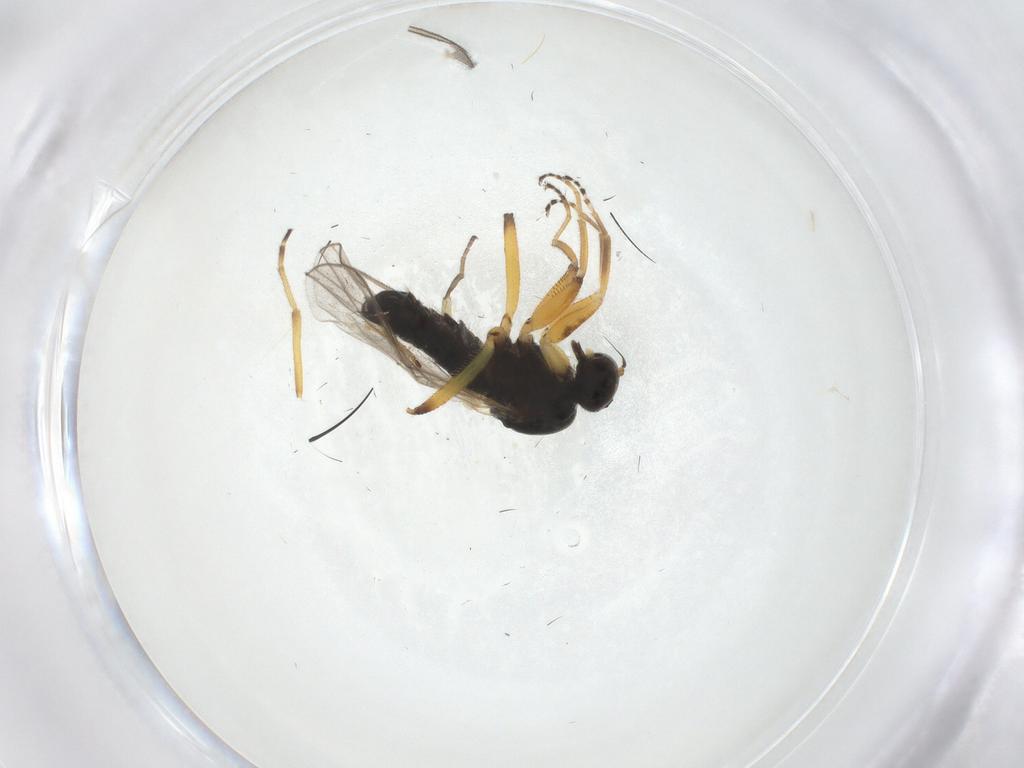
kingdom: Animalia
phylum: Arthropoda
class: Insecta
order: Diptera
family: Hybotidae
